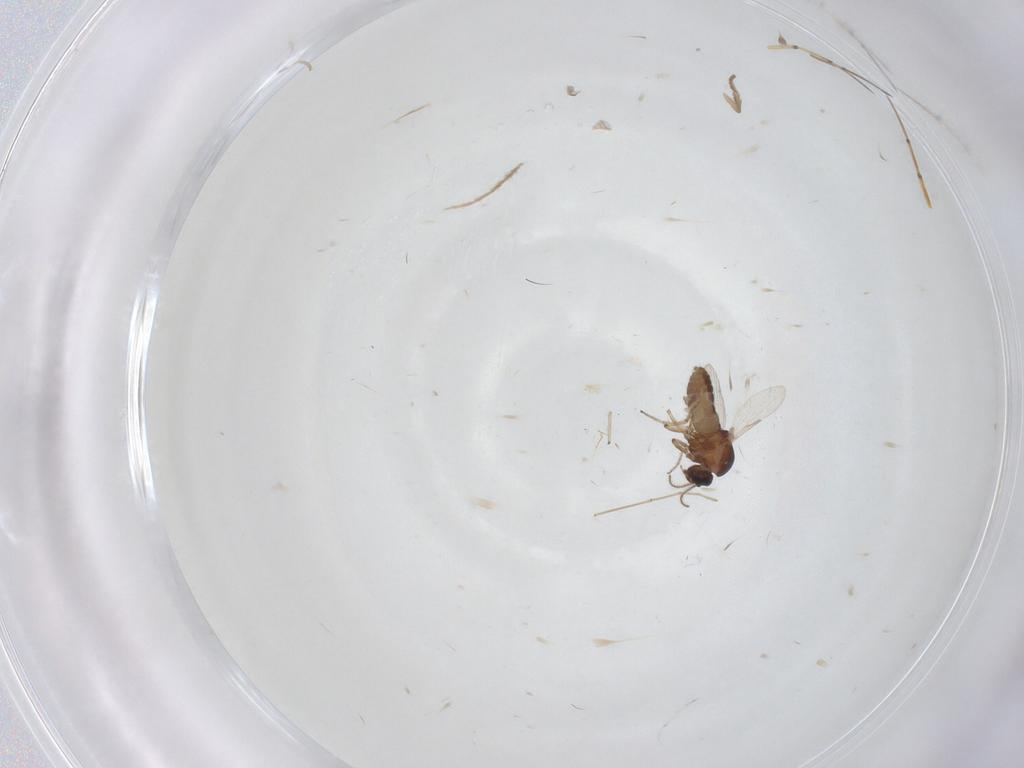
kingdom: Animalia
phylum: Arthropoda
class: Insecta
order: Diptera
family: Ceratopogonidae
